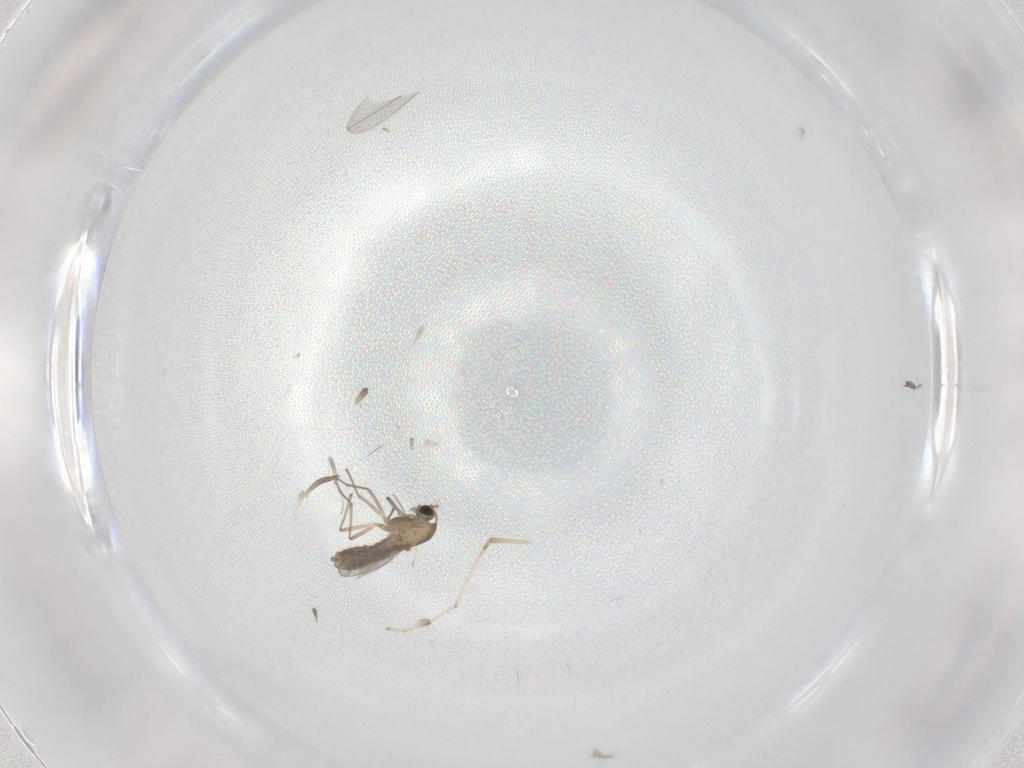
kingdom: Animalia
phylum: Arthropoda
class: Insecta
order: Diptera
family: Chironomidae
